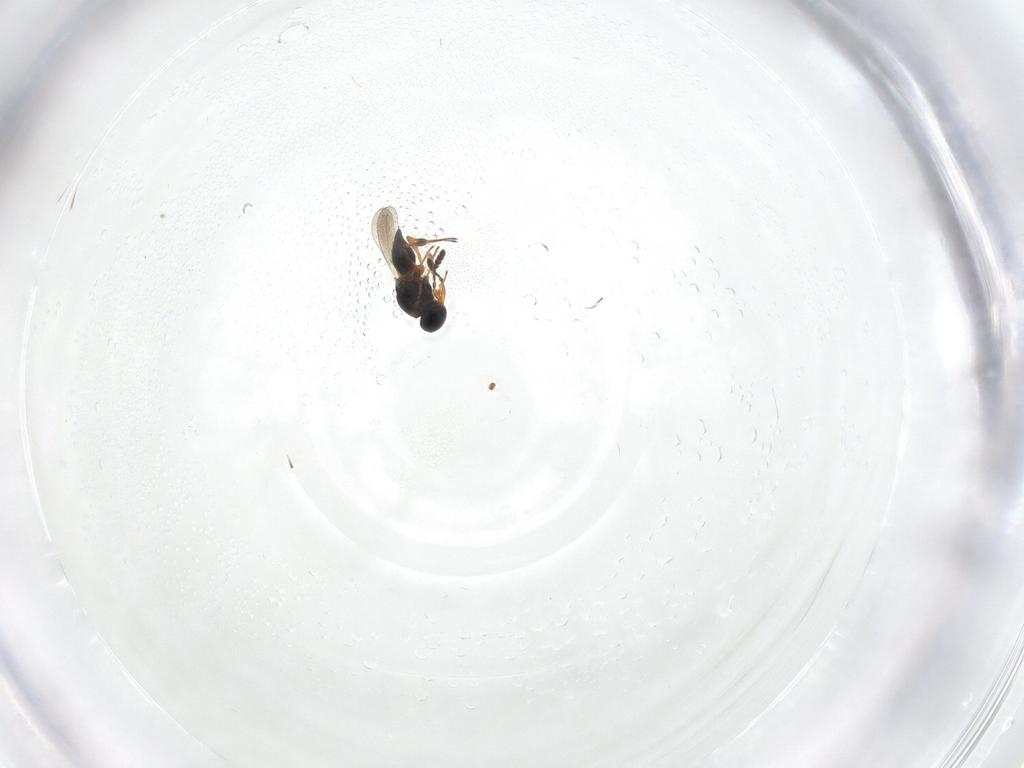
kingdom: Animalia
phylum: Arthropoda
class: Insecta
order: Hymenoptera
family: Platygastridae
